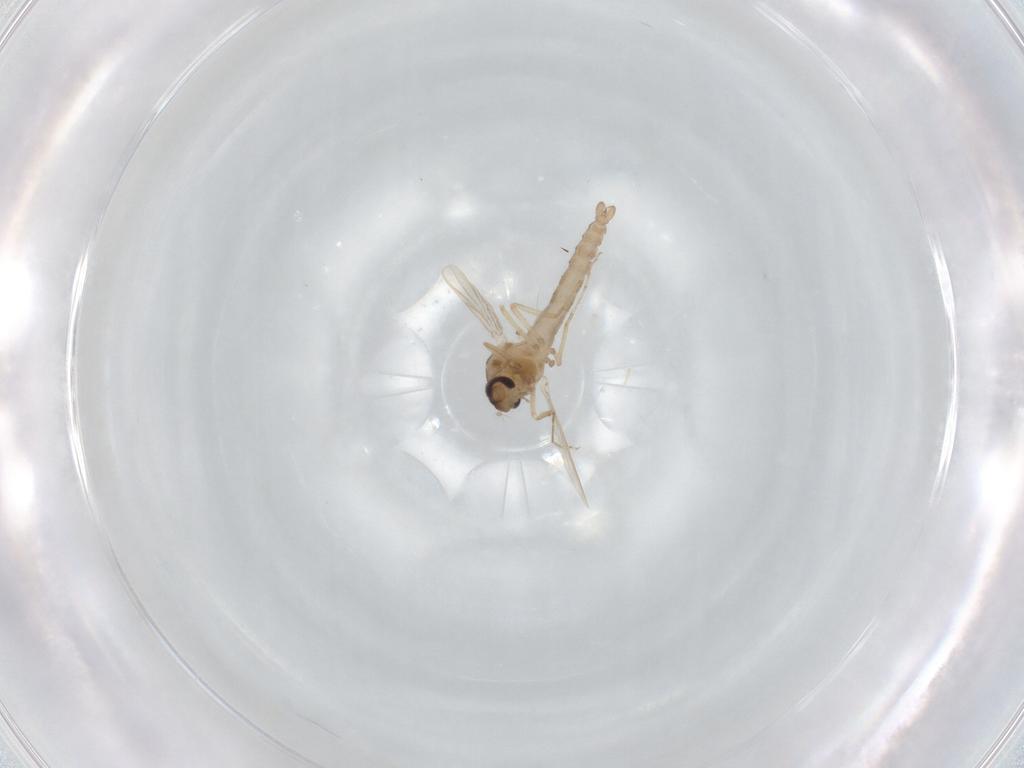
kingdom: Animalia
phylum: Arthropoda
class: Insecta
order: Diptera
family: Ceratopogonidae
